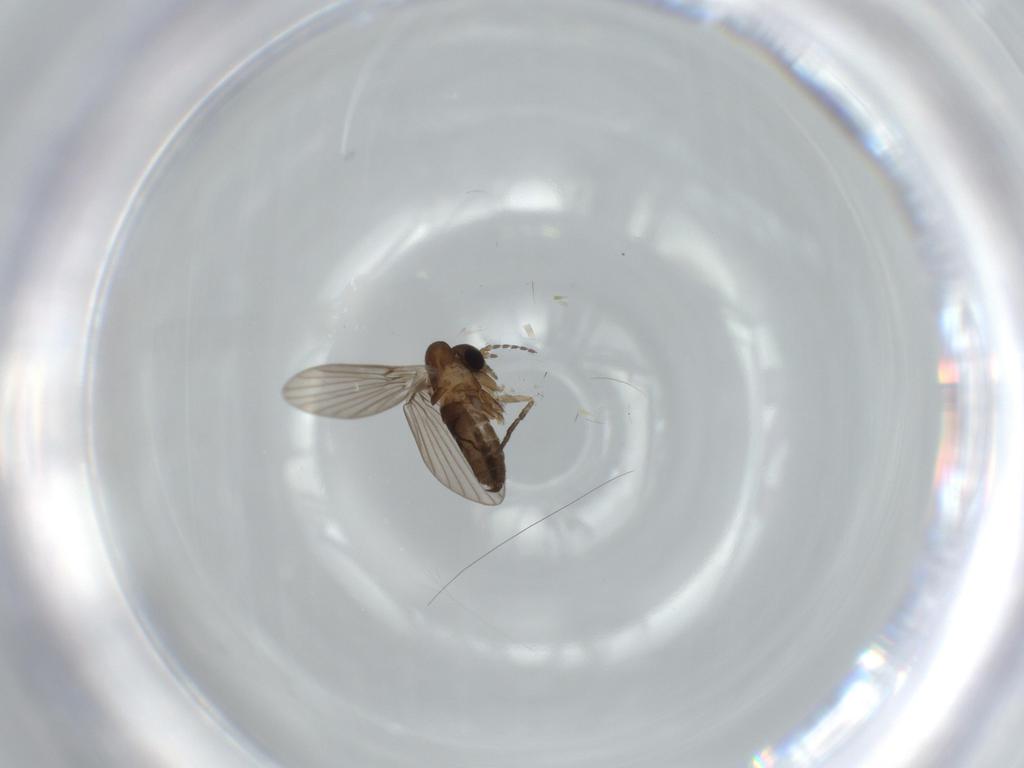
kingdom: Animalia
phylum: Arthropoda
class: Insecta
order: Diptera
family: Psychodidae
